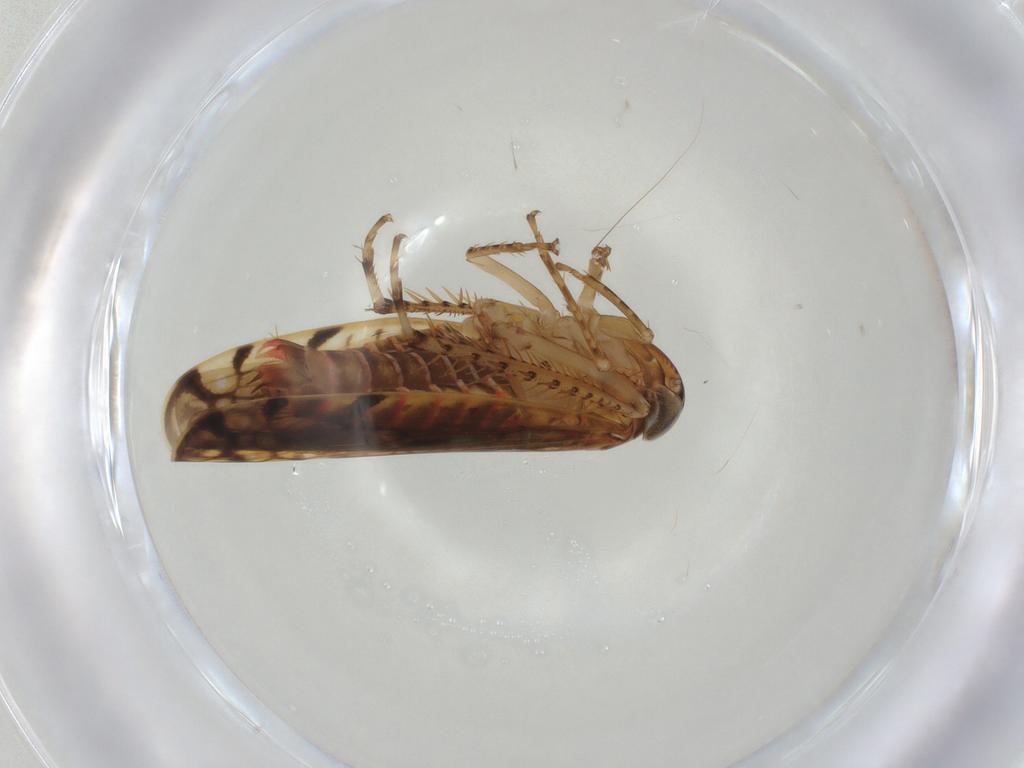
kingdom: Animalia
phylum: Arthropoda
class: Insecta
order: Hemiptera
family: Cicadellidae
